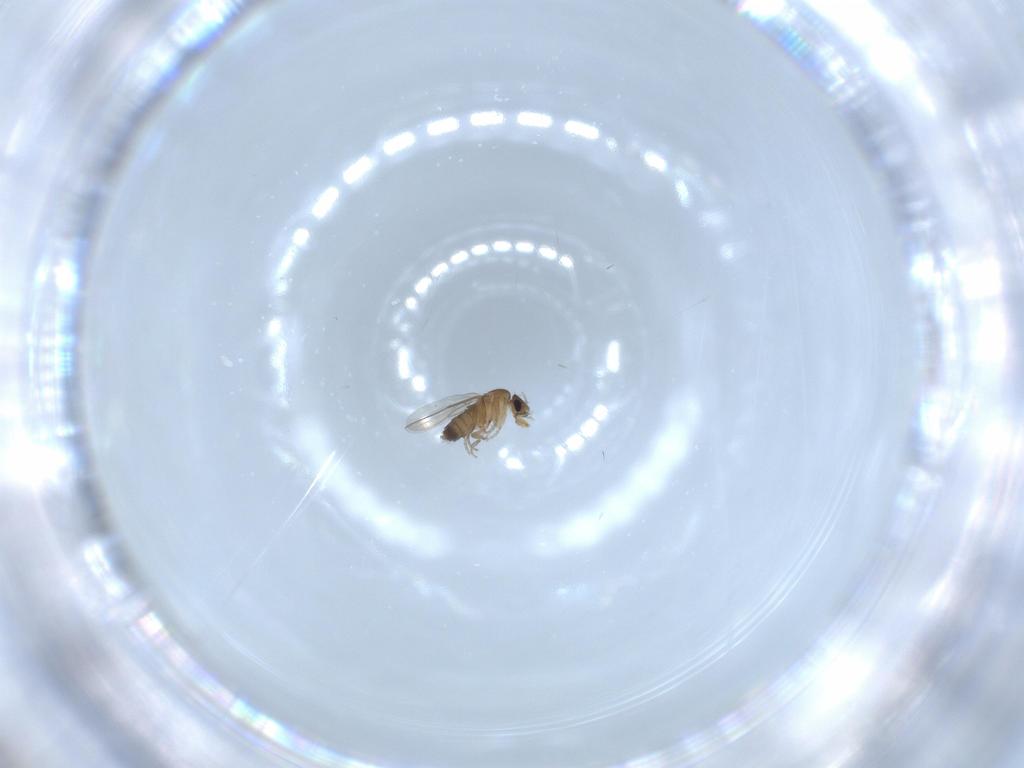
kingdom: Animalia
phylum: Arthropoda
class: Insecta
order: Diptera
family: Phoridae
